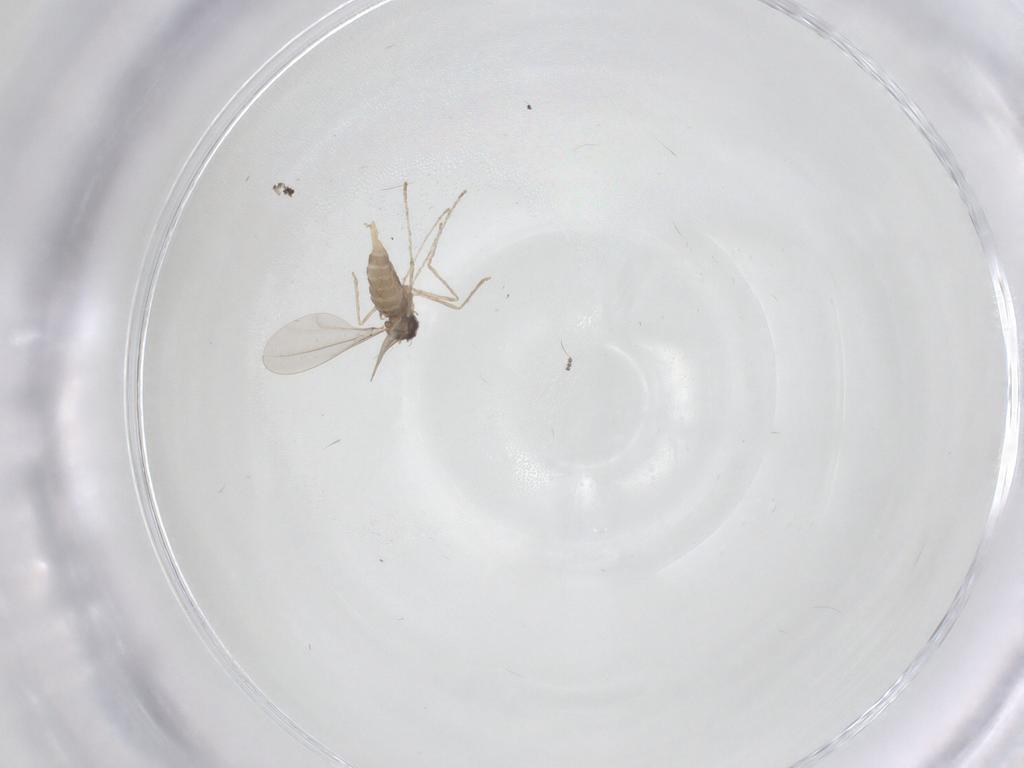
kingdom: Animalia
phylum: Arthropoda
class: Insecta
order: Diptera
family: Cecidomyiidae
